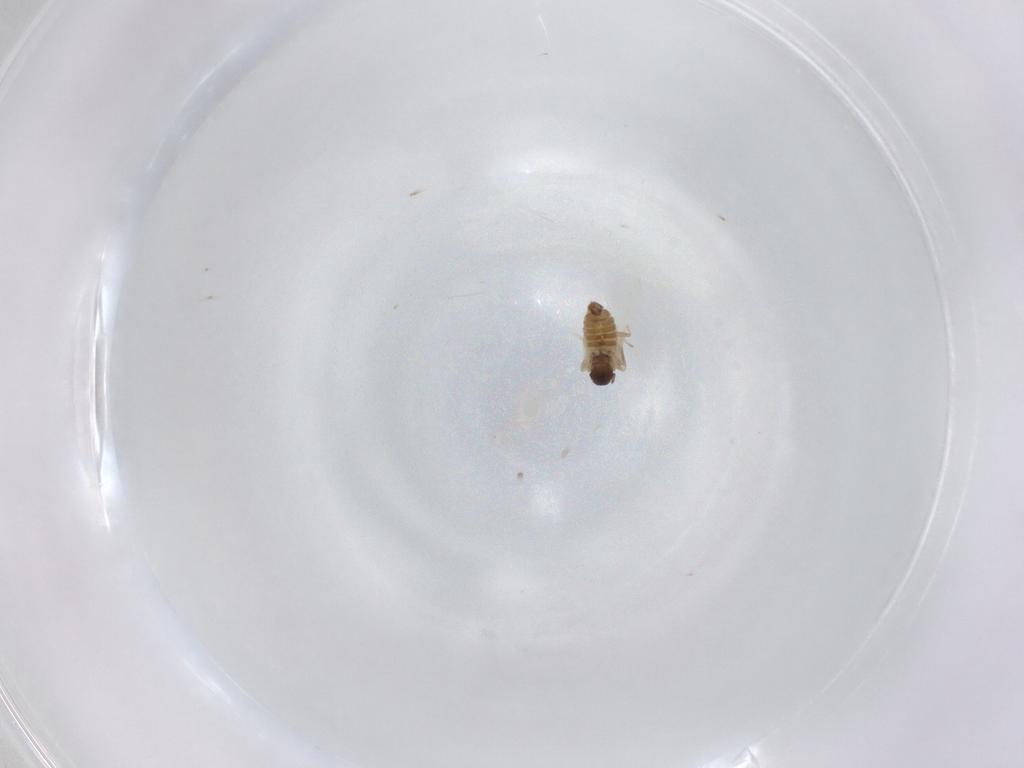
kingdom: Animalia
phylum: Arthropoda
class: Insecta
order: Diptera
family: Cecidomyiidae
